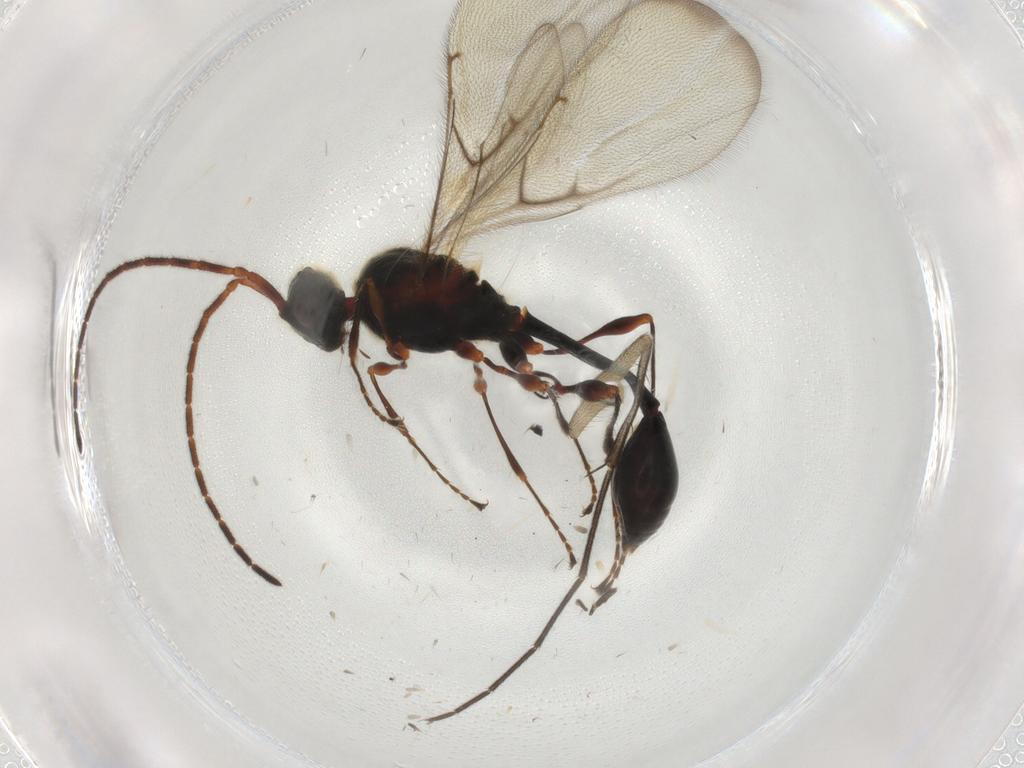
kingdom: Animalia
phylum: Arthropoda
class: Insecta
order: Hymenoptera
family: Diapriidae
